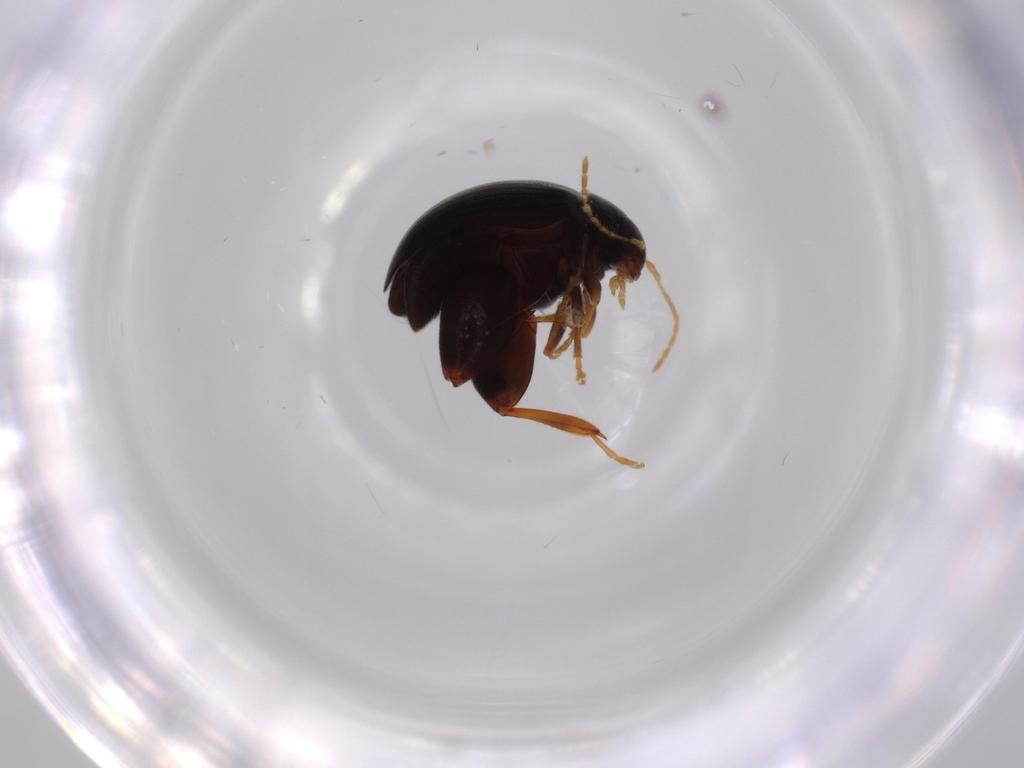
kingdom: Animalia
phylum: Arthropoda
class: Insecta
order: Coleoptera
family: Chrysomelidae
